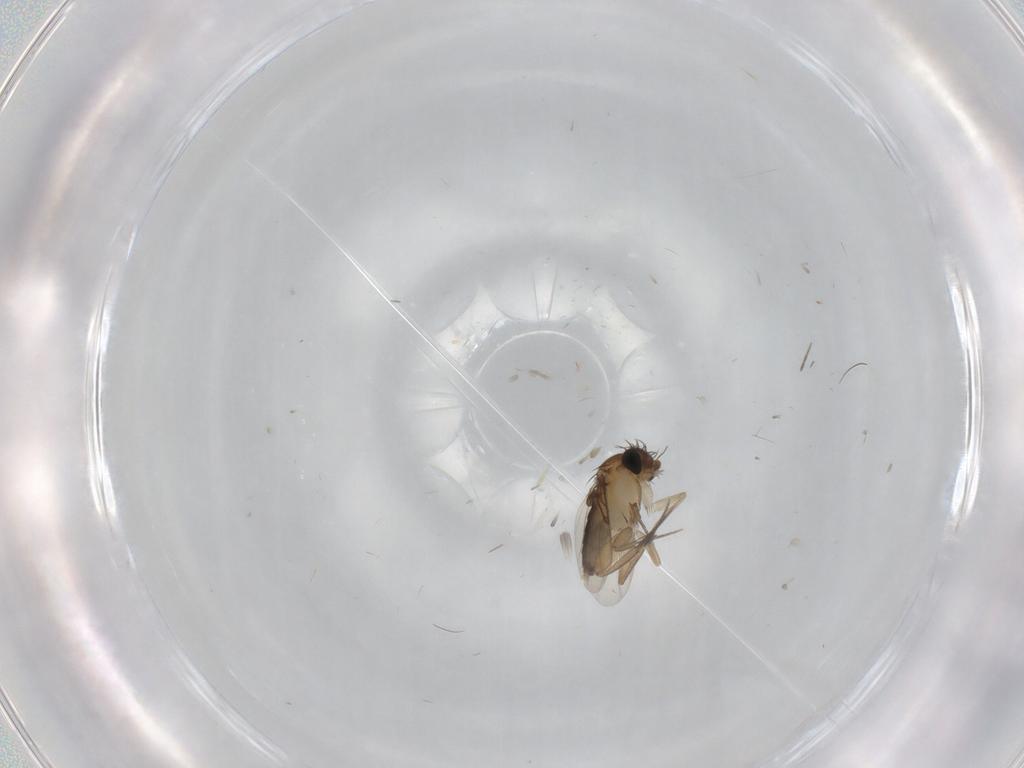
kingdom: Animalia
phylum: Arthropoda
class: Insecta
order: Diptera
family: Phoridae
